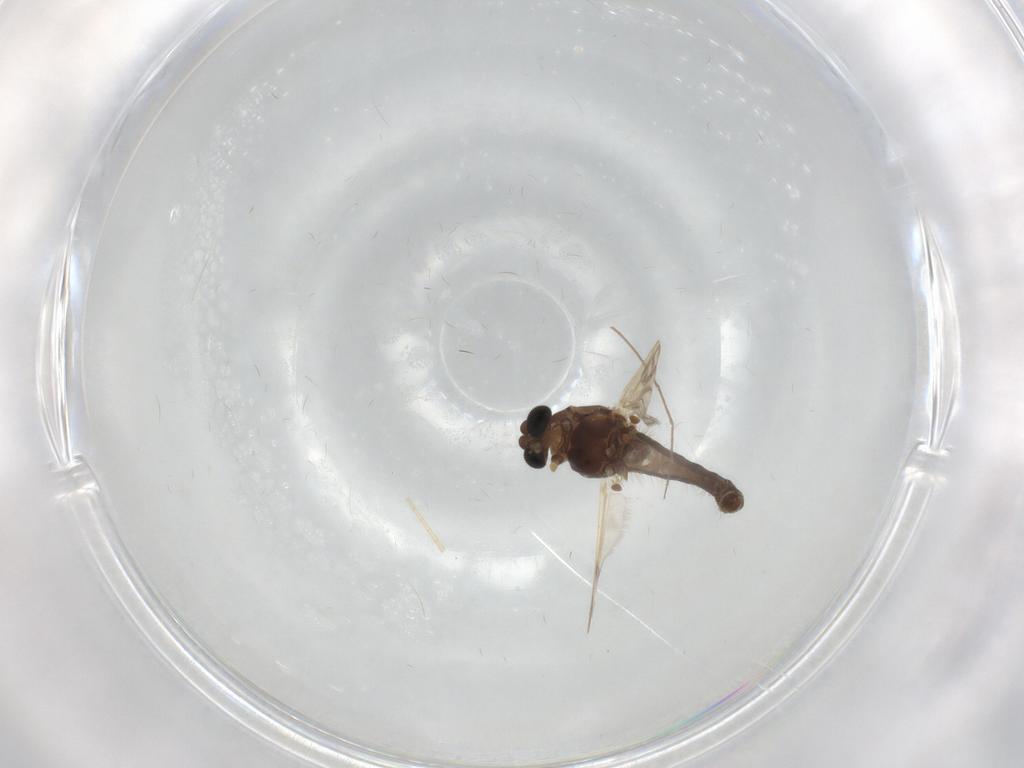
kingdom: Animalia
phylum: Arthropoda
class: Insecta
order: Diptera
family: Chironomidae
